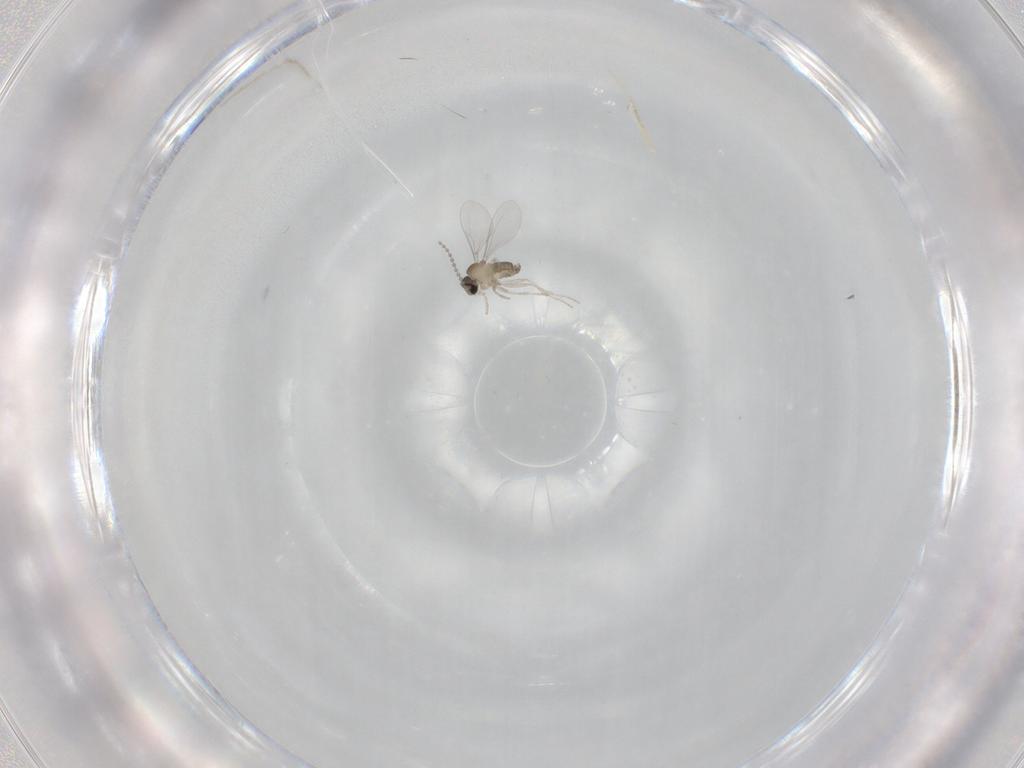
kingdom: Animalia
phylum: Arthropoda
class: Insecta
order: Diptera
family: Cecidomyiidae
